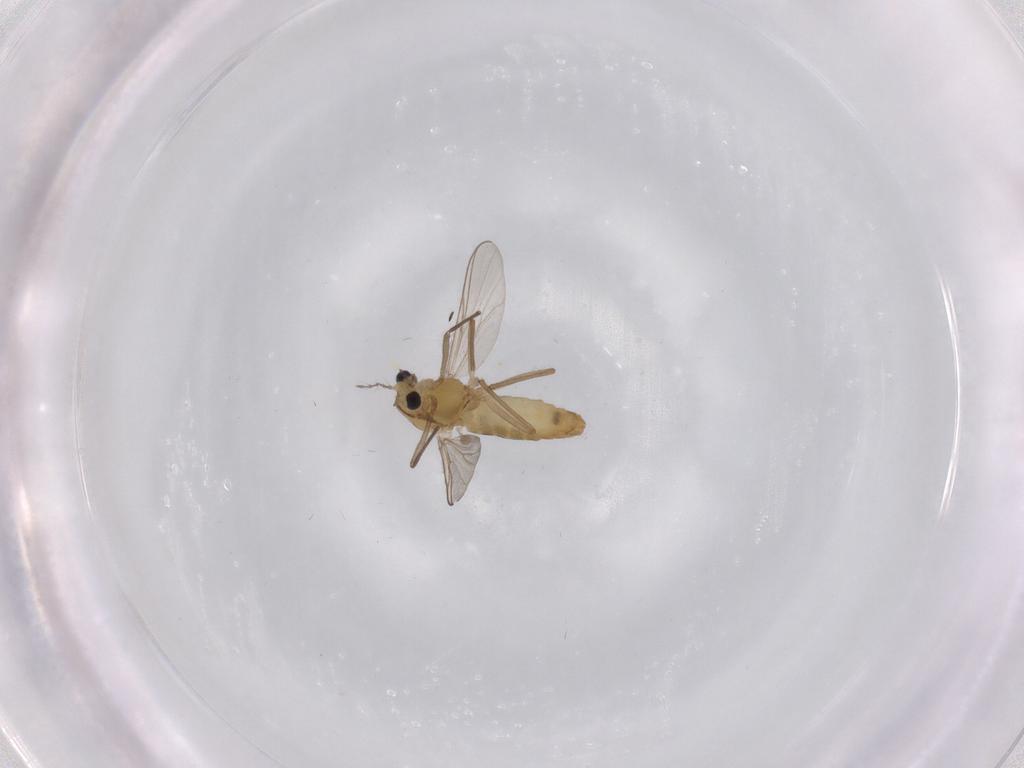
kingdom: Animalia
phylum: Arthropoda
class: Insecta
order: Diptera
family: Chironomidae
